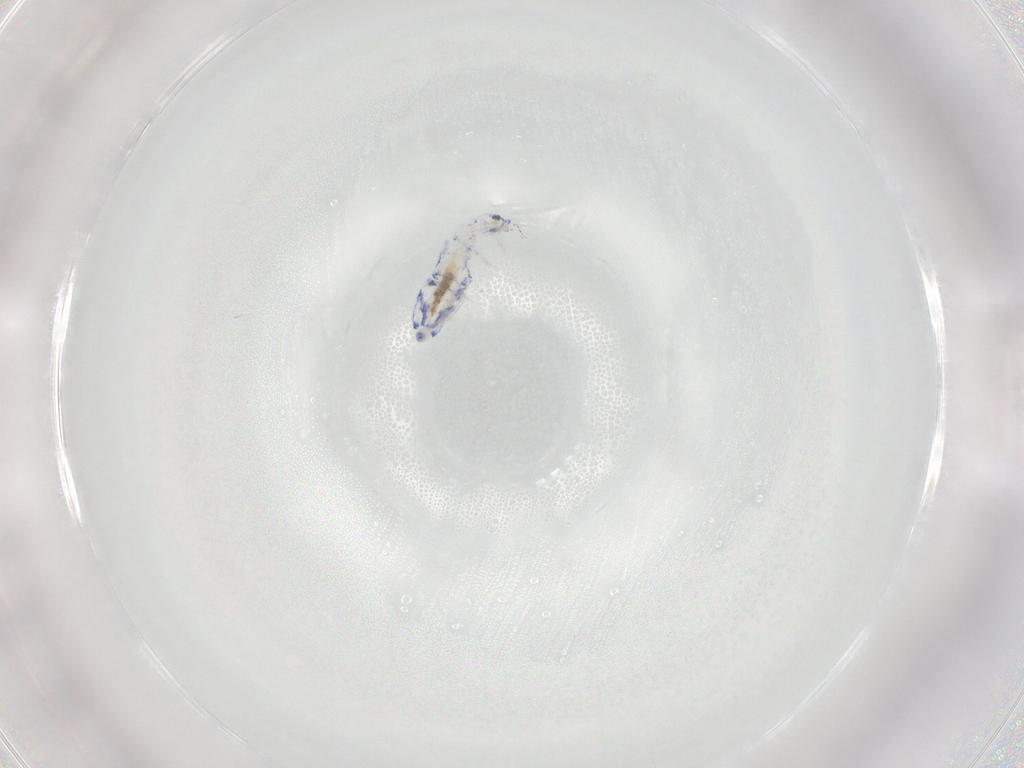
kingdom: Animalia
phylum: Arthropoda
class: Collembola
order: Entomobryomorpha
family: Entomobryidae
